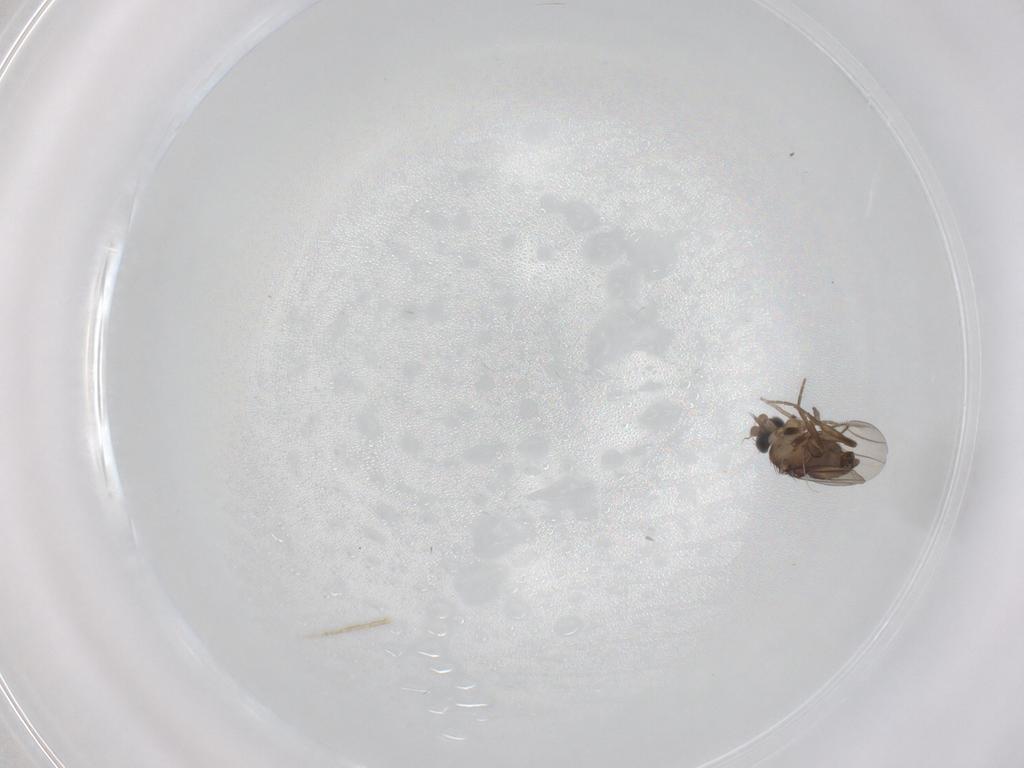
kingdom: Animalia
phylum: Arthropoda
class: Insecta
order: Diptera
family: Phoridae
